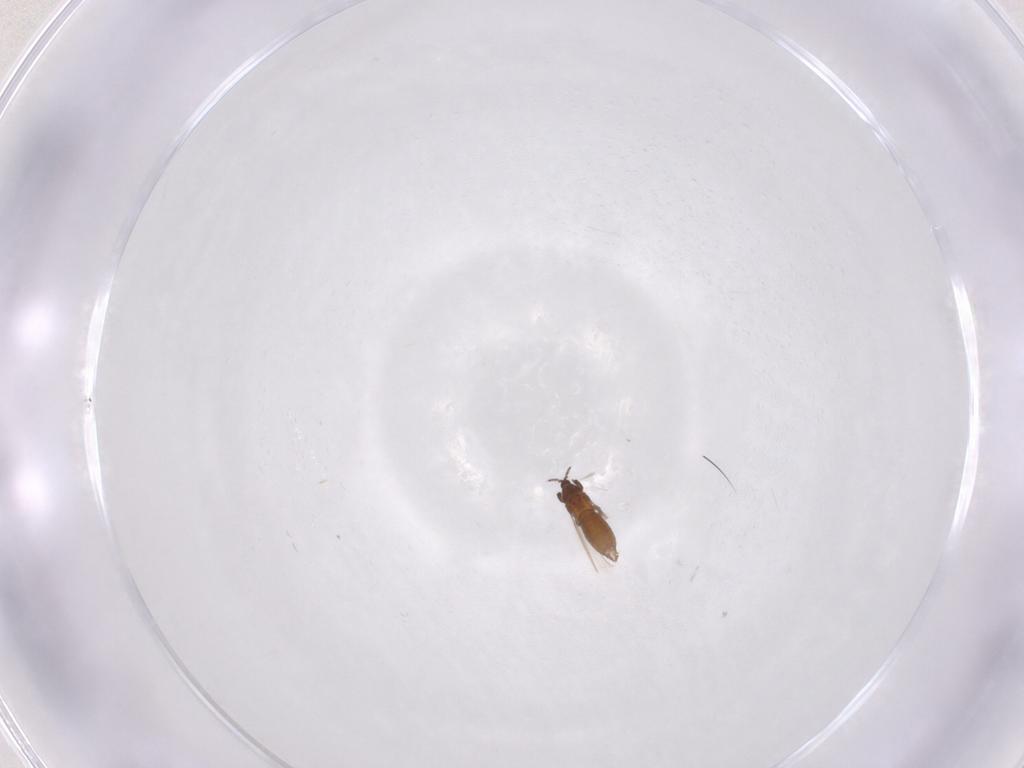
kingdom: Animalia
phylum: Arthropoda
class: Insecta
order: Thysanoptera
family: Thripidae
